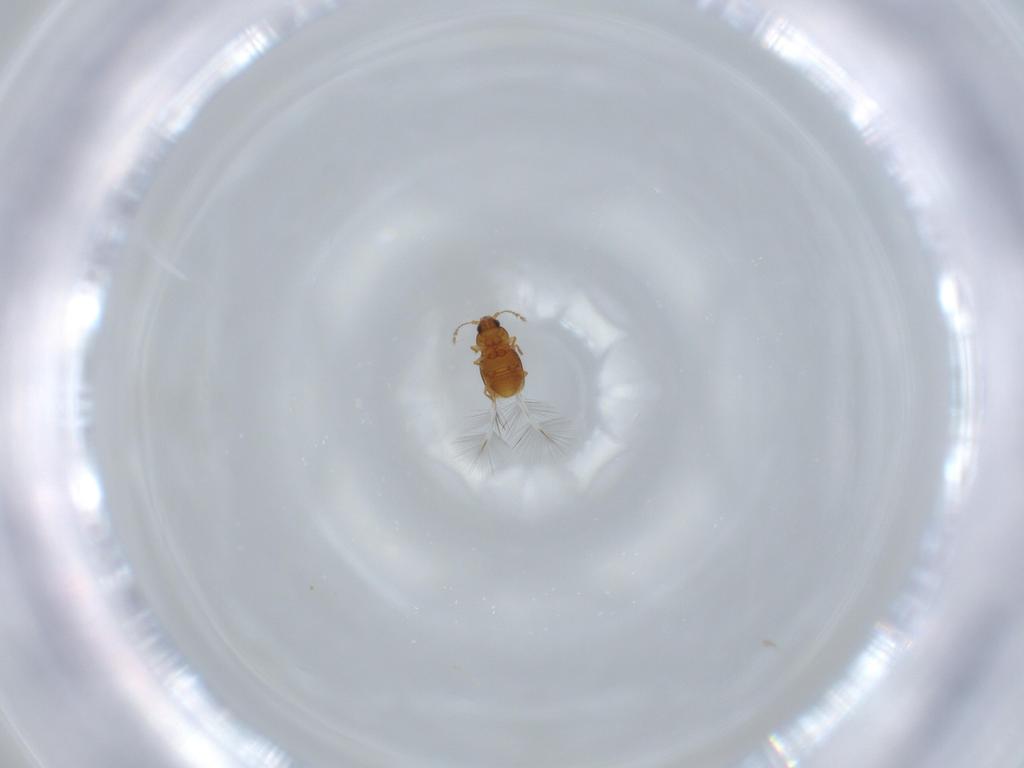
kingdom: Animalia
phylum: Arthropoda
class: Insecta
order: Coleoptera
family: Ptiliidae
